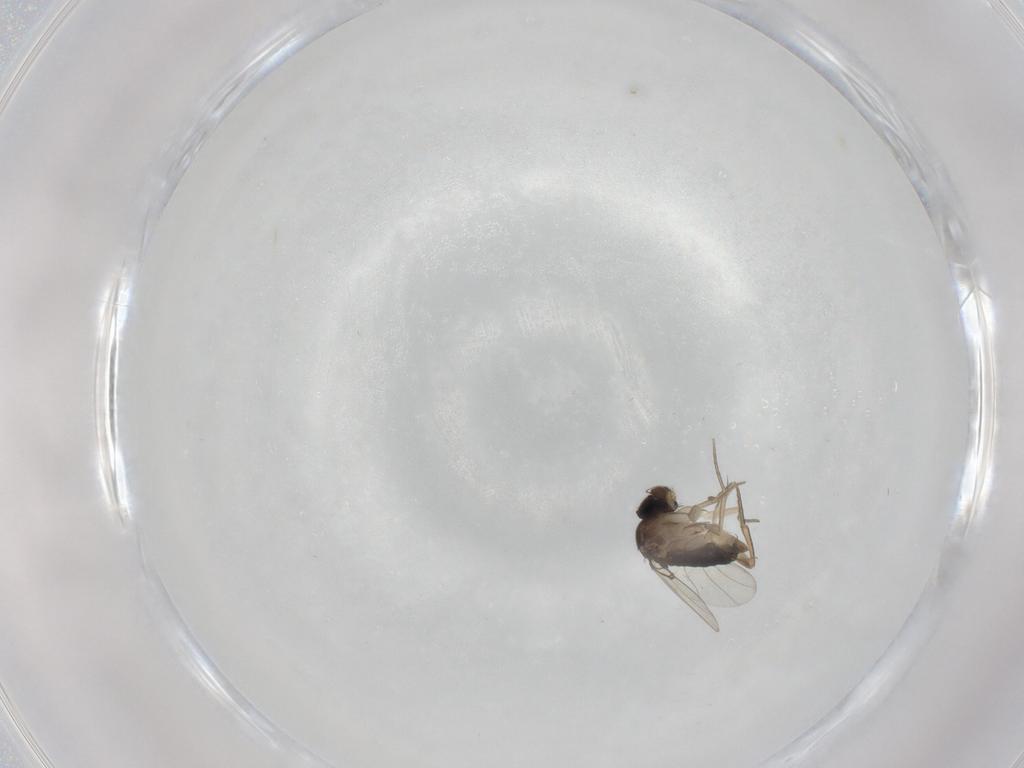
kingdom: Animalia
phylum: Arthropoda
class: Insecta
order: Diptera
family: Phoridae
